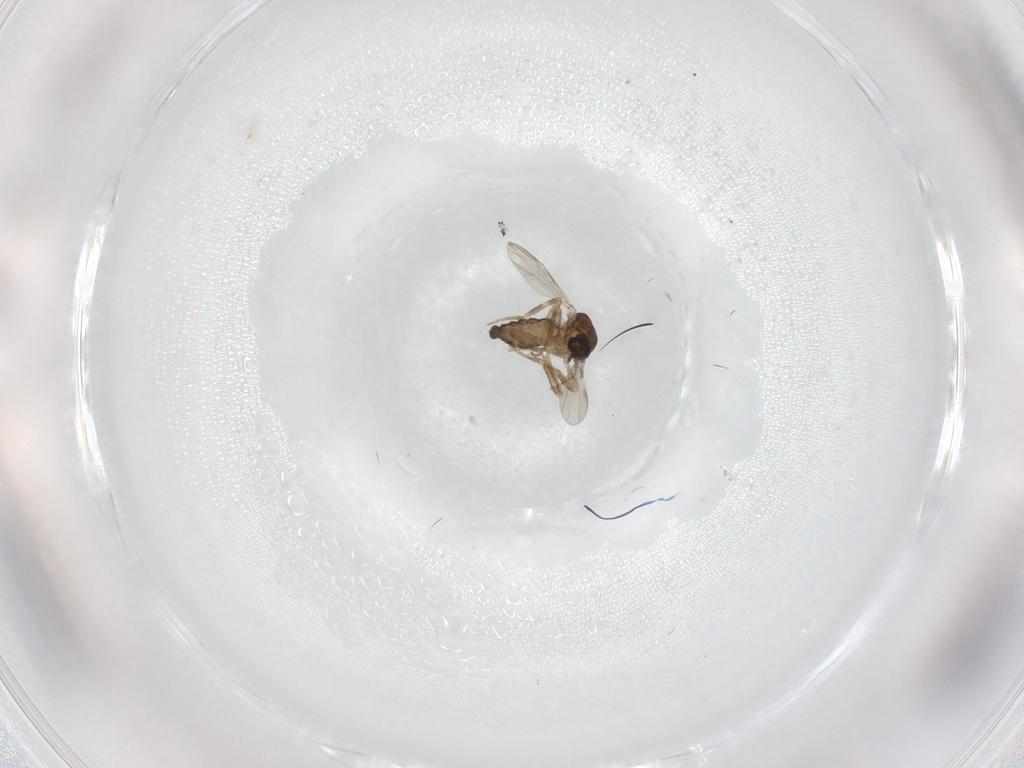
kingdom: Animalia
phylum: Arthropoda
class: Insecta
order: Diptera
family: Ceratopogonidae
